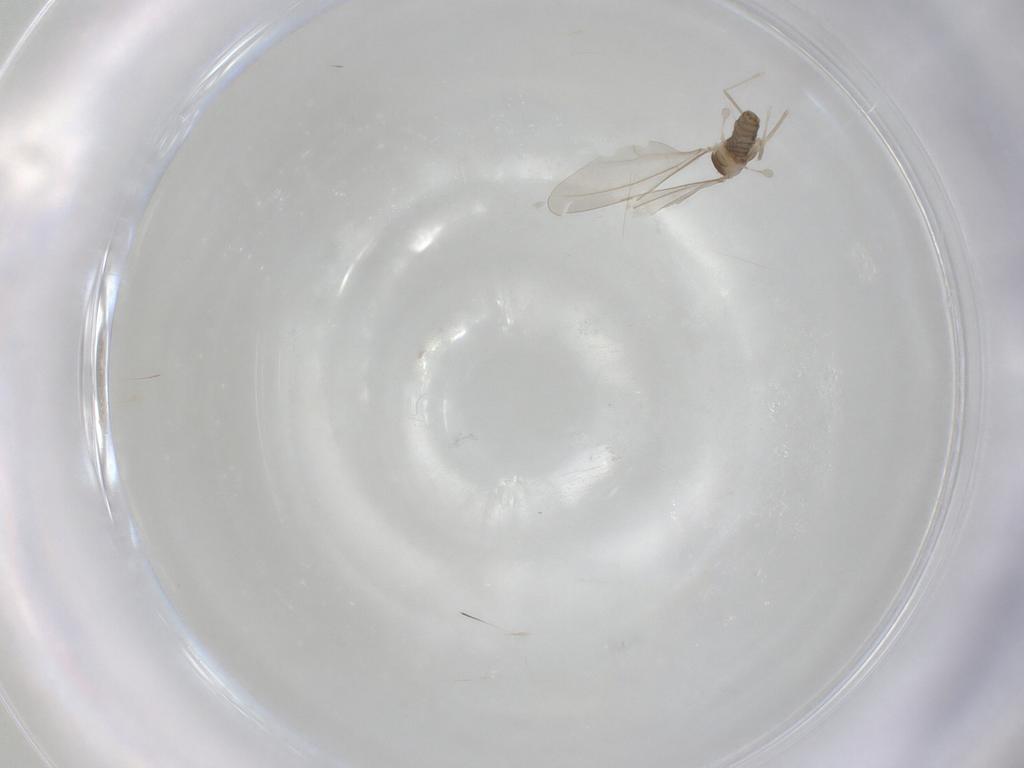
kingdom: Animalia
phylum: Arthropoda
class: Insecta
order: Diptera
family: Cecidomyiidae
